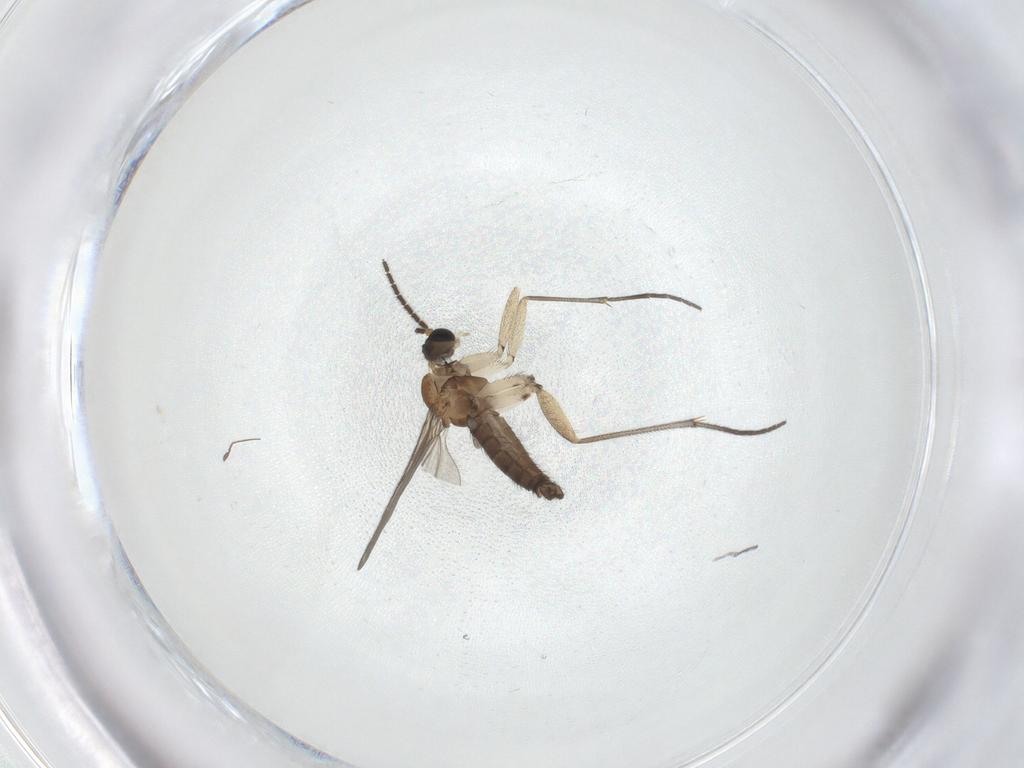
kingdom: Animalia
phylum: Arthropoda
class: Insecta
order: Diptera
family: Sciaridae
